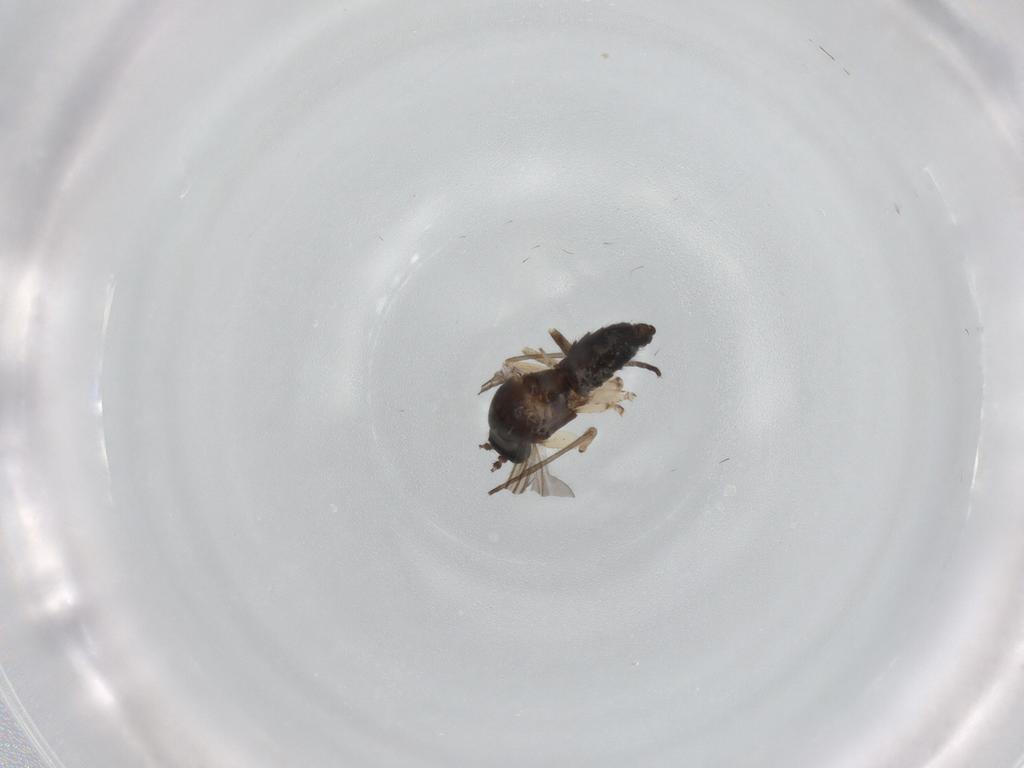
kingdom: Animalia
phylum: Arthropoda
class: Insecta
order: Diptera
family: Sciaridae
